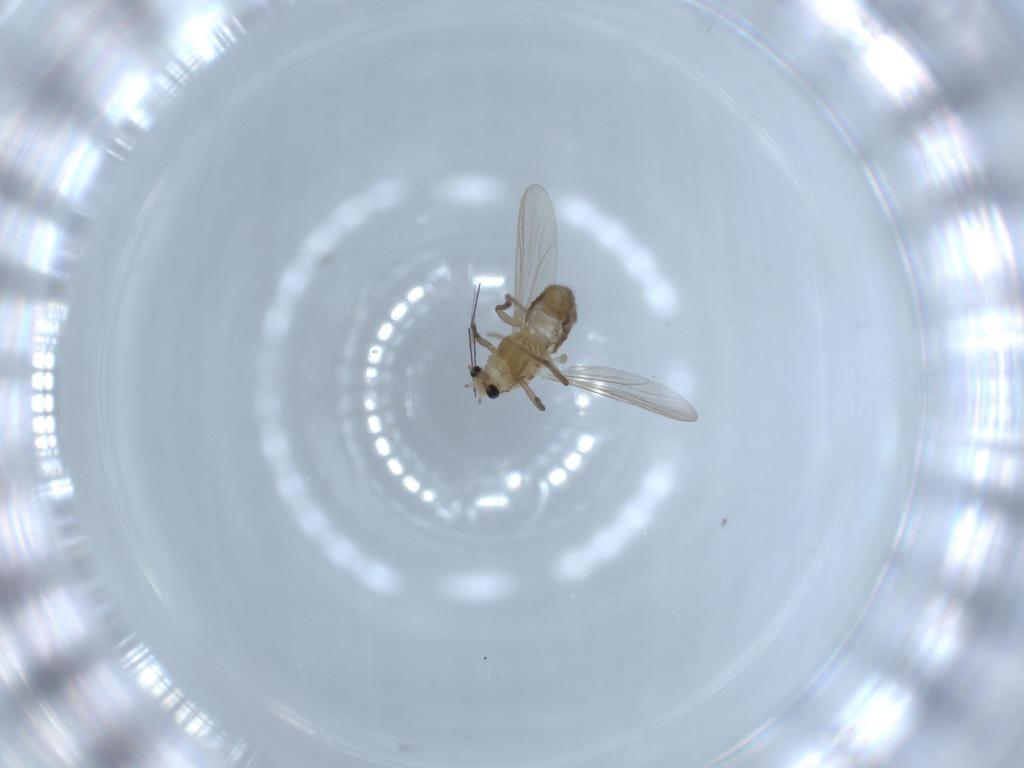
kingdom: Animalia
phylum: Arthropoda
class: Insecta
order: Diptera
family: Chironomidae
